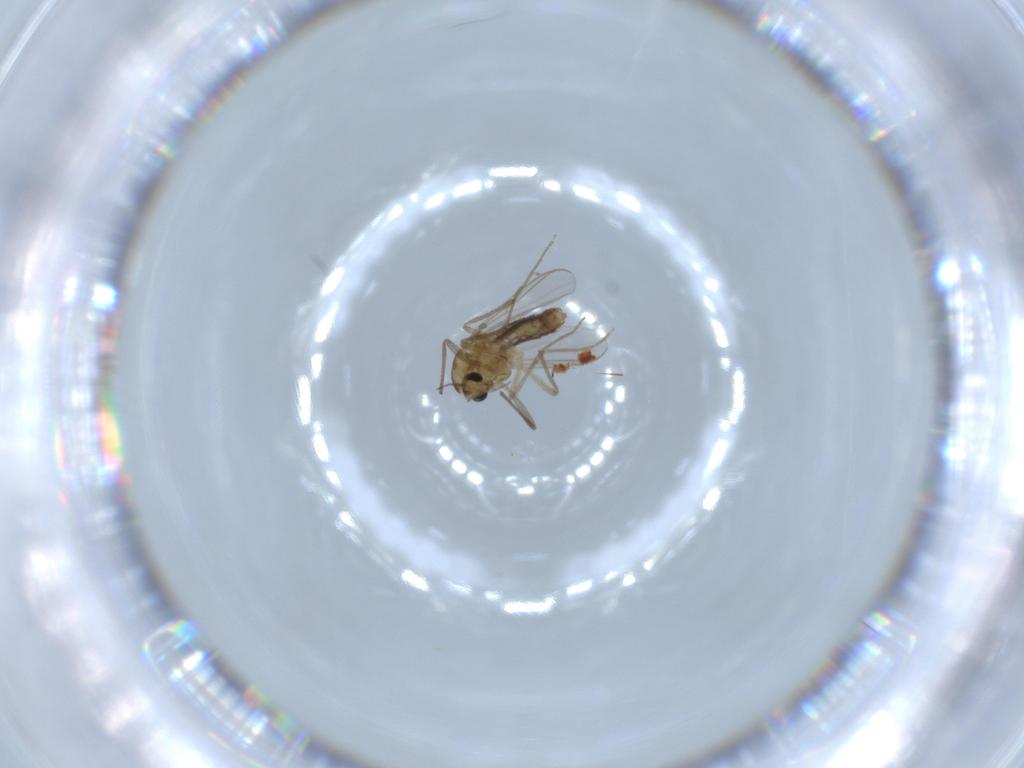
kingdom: Animalia
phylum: Arthropoda
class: Insecta
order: Diptera
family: Chironomidae
